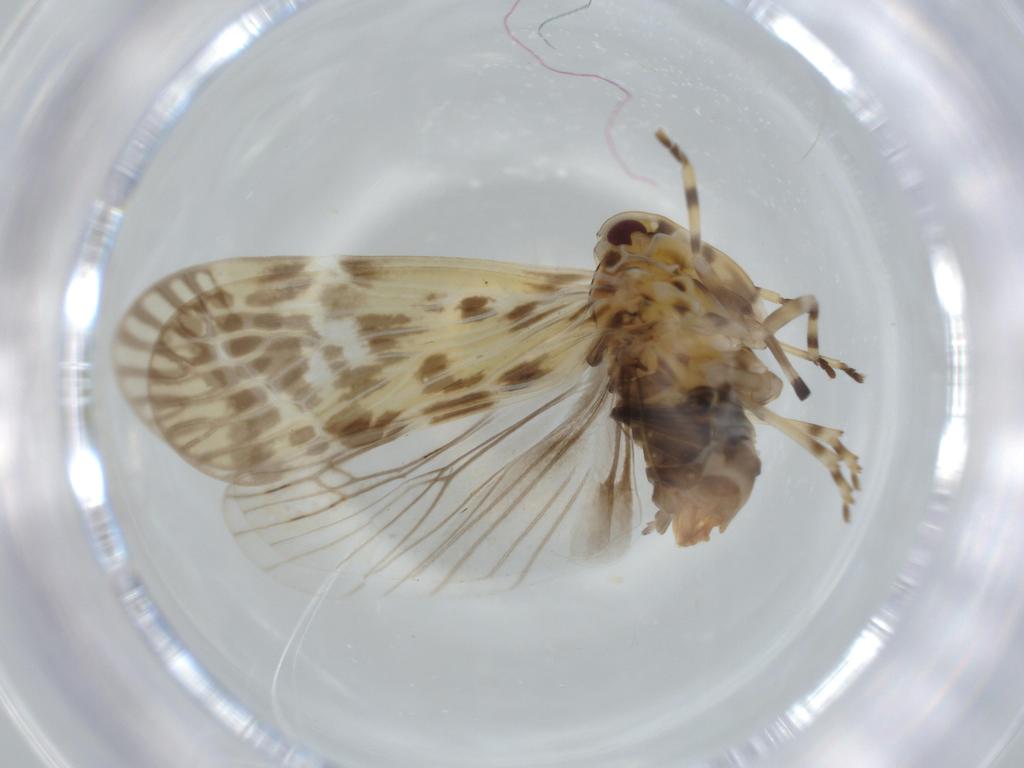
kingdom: Animalia
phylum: Arthropoda
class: Insecta
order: Hemiptera
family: Derbidae
